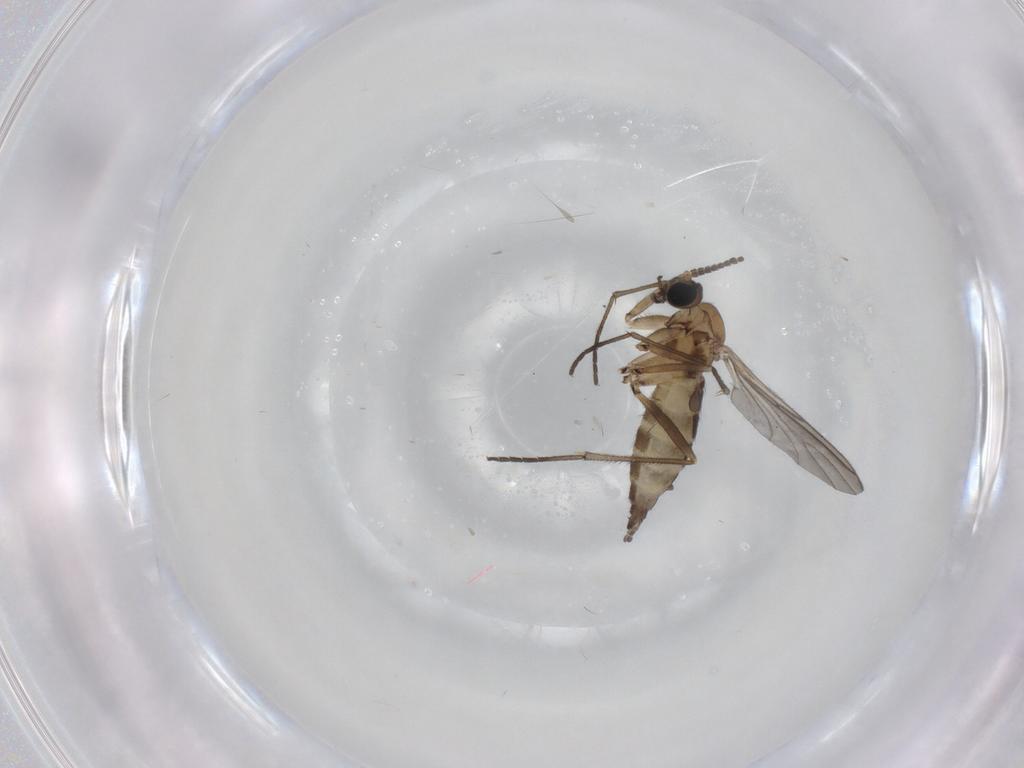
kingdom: Animalia
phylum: Arthropoda
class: Insecta
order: Diptera
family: Sciaridae
